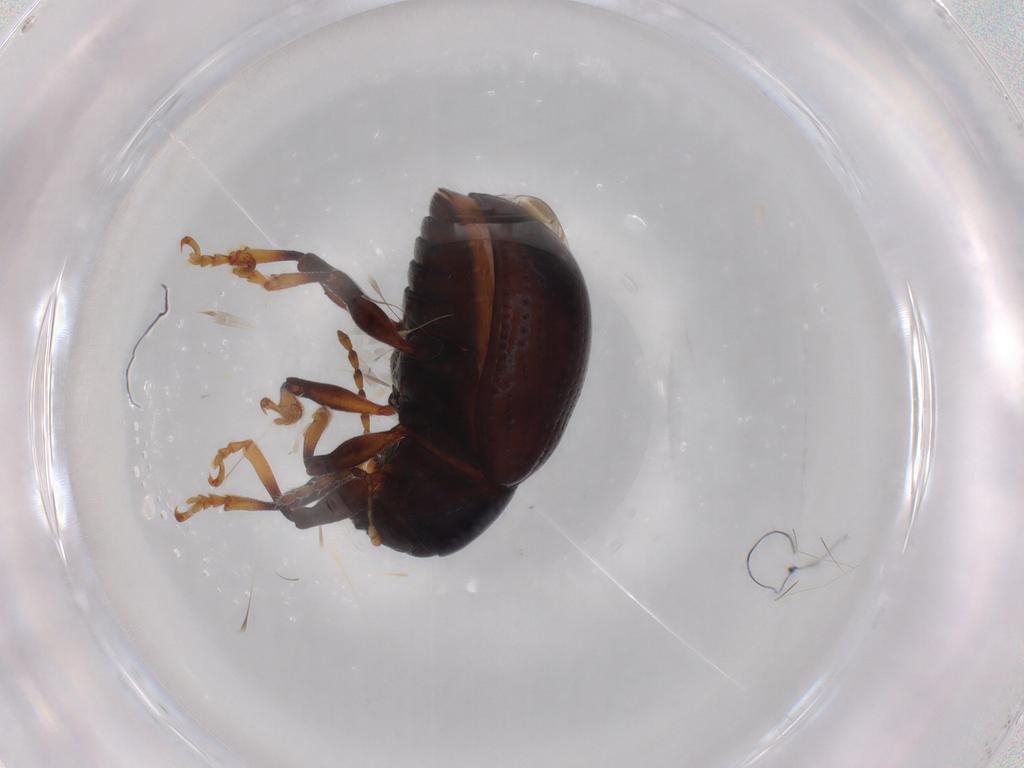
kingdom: Animalia
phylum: Arthropoda
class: Insecta
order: Coleoptera
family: Chrysomelidae
